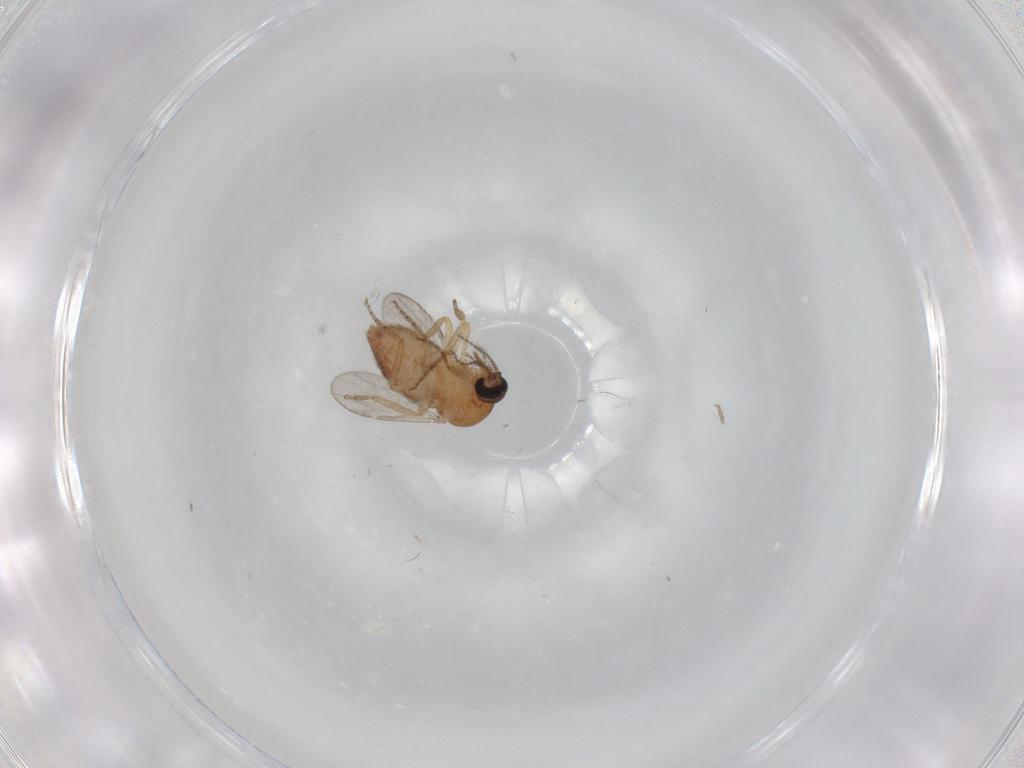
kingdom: Animalia
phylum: Arthropoda
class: Insecta
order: Diptera
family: Ceratopogonidae
